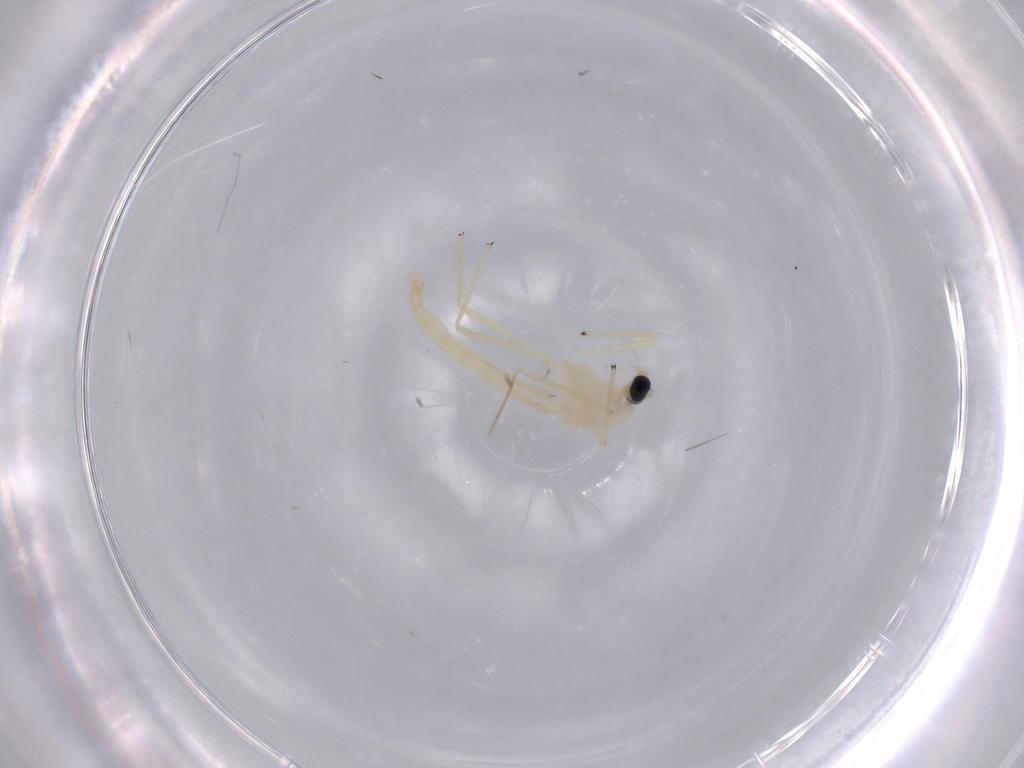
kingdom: Animalia
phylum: Arthropoda
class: Insecta
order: Diptera
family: Chironomidae
